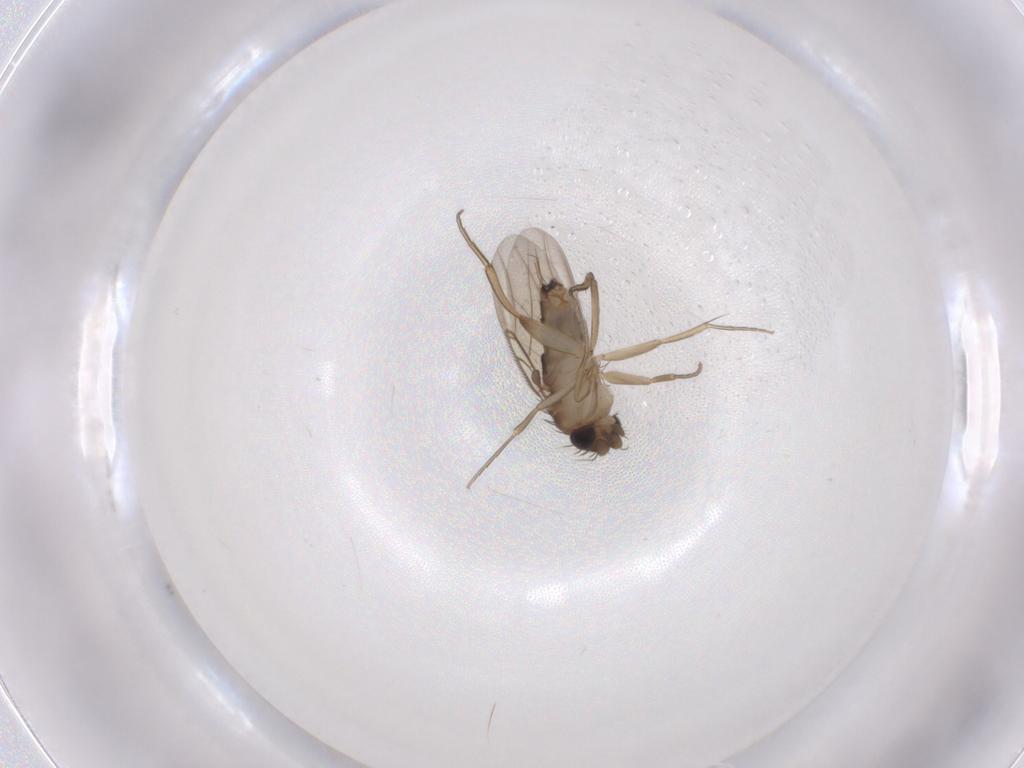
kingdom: Animalia
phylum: Arthropoda
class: Insecta
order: Diptera
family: Phoridae
